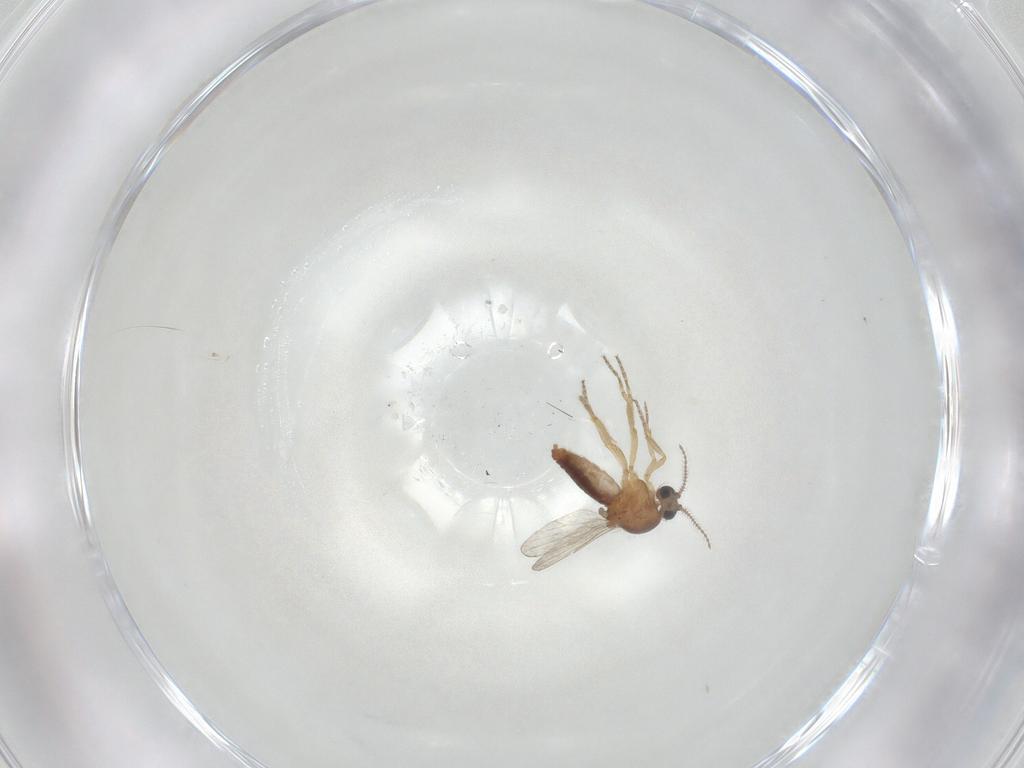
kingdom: Animalia
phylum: Arthropoda
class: Insecta
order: Diptera
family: Ceratopogonidae
